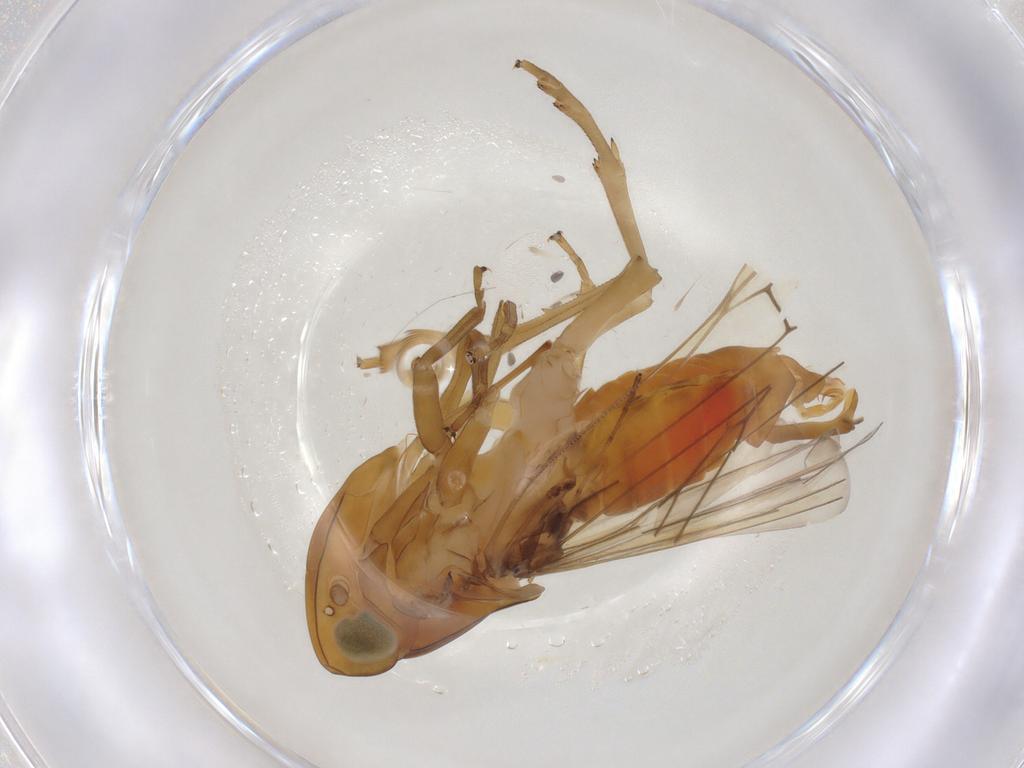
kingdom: Animalia
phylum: Arthropoda
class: Insecta
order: Hemiptera
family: Cixiidae
